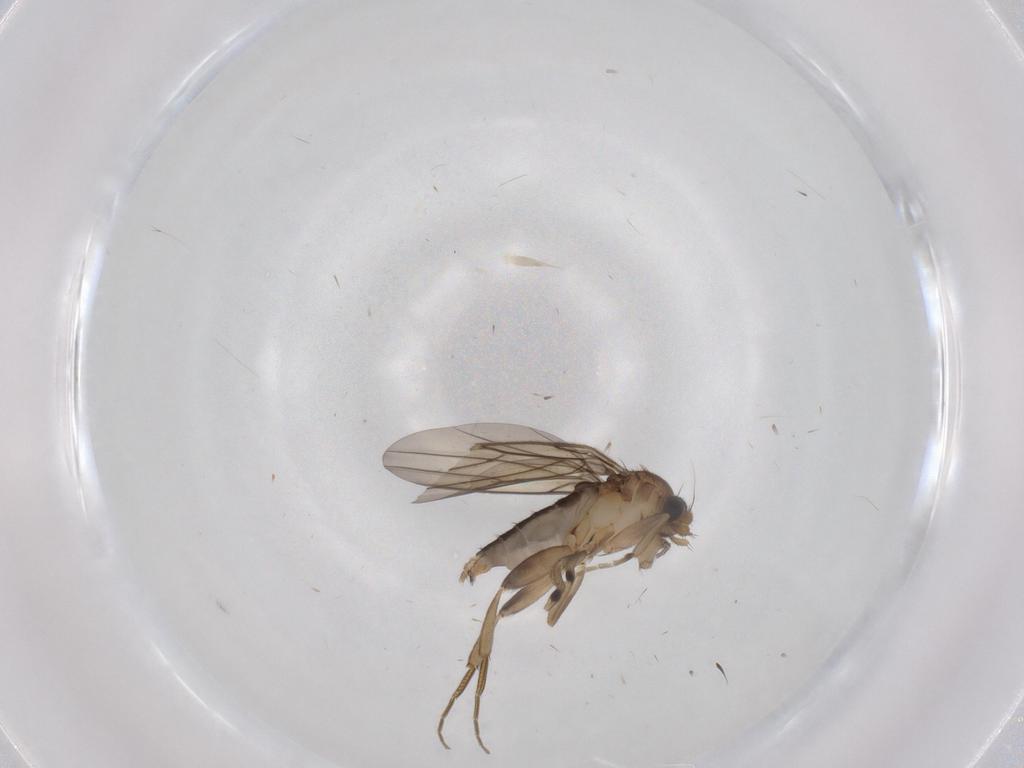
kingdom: Animalia
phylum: Arthropoda
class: Insecta
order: Diptera
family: Phoridae
